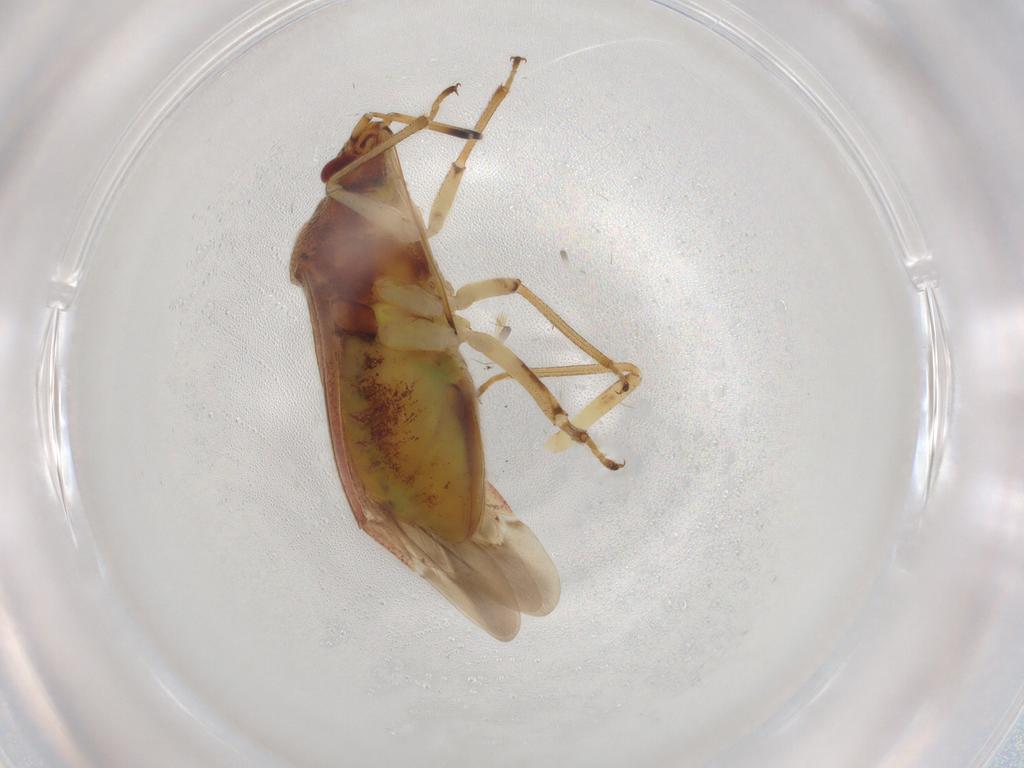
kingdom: Animalia
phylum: Arthropoda
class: Insecta
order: Hemiptera
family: Miridae
